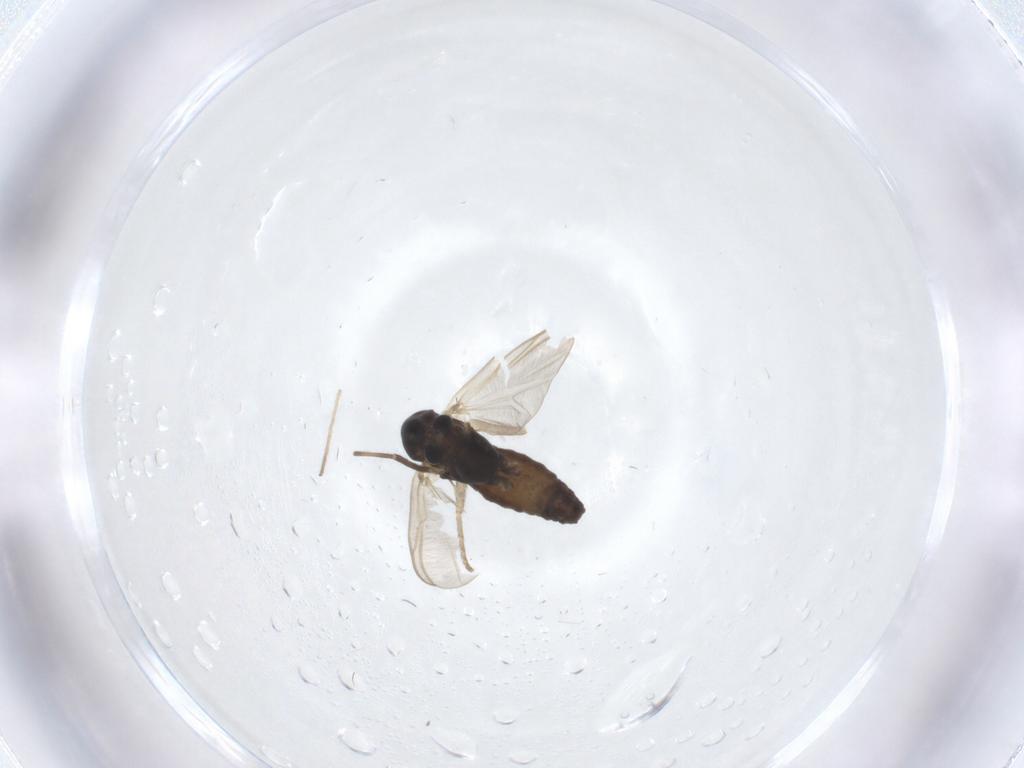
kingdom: Animalia
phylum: Arthropoda
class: Insecta
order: Diptera
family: Chironomidae
